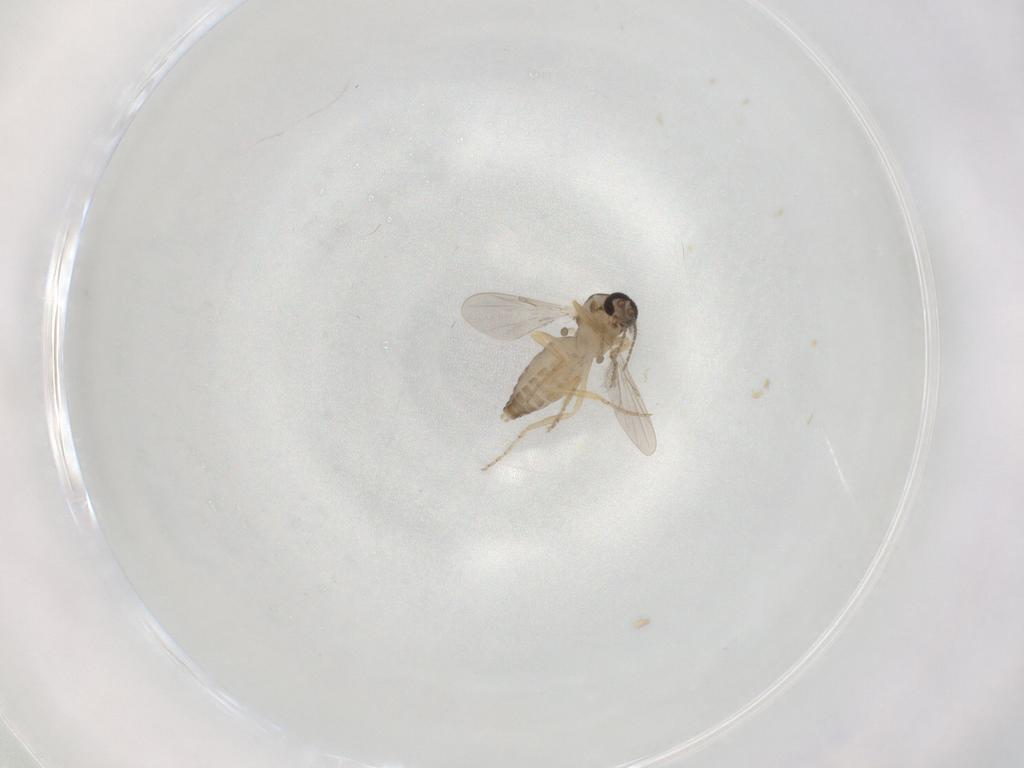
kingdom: Animalia
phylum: Arthropoda
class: Insecta
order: Diptera
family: Ceratopogonidae
